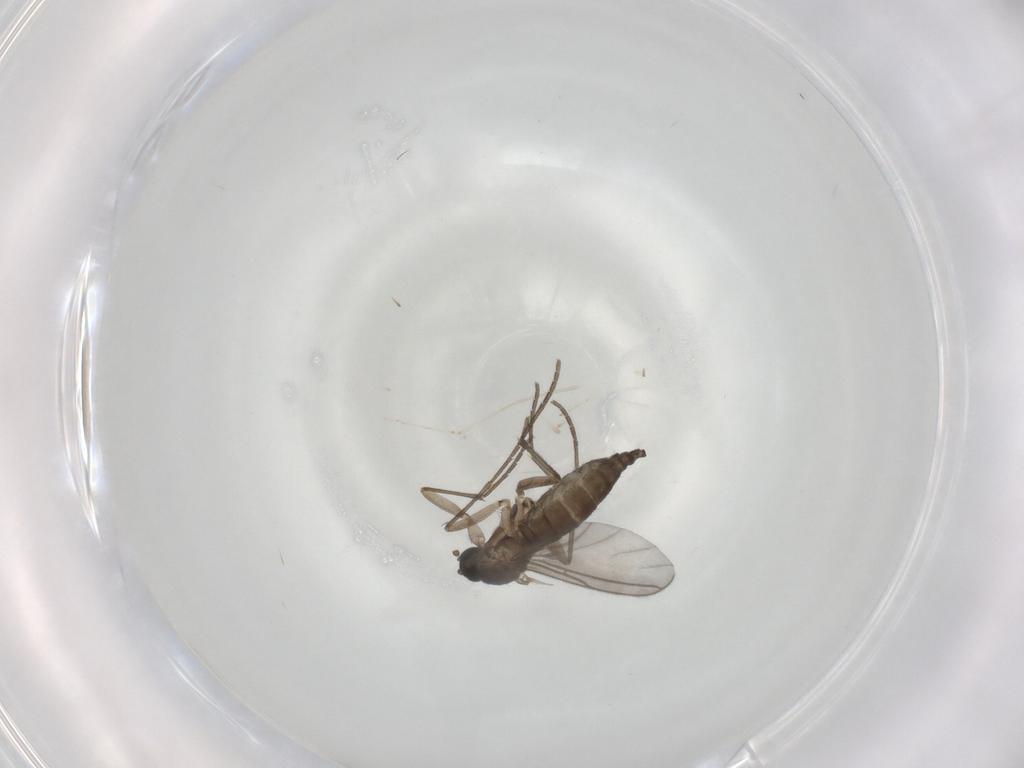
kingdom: Animalia
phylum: Arthropoda
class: Insecta
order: Diptera
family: Sciaridae
